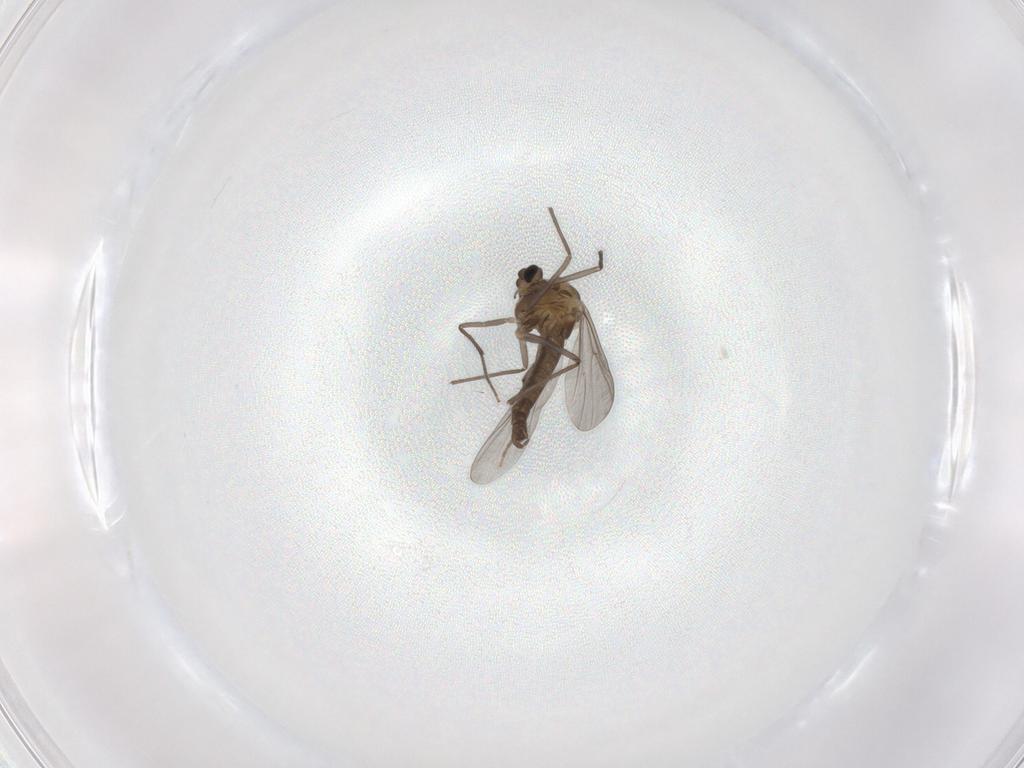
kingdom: Animalia
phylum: Arthropoda
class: Insecta
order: Diptera
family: Chironomidae
